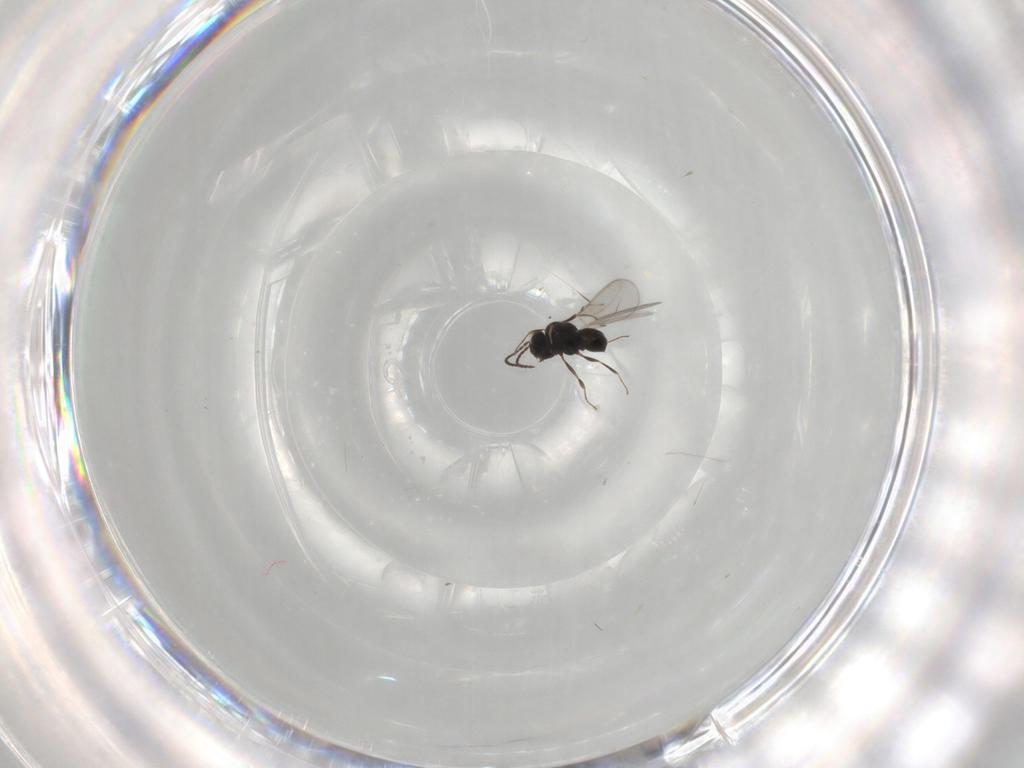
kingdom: Animalia
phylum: Arthropoda
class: Insecta
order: Hymenoptera
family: Scelionidae
